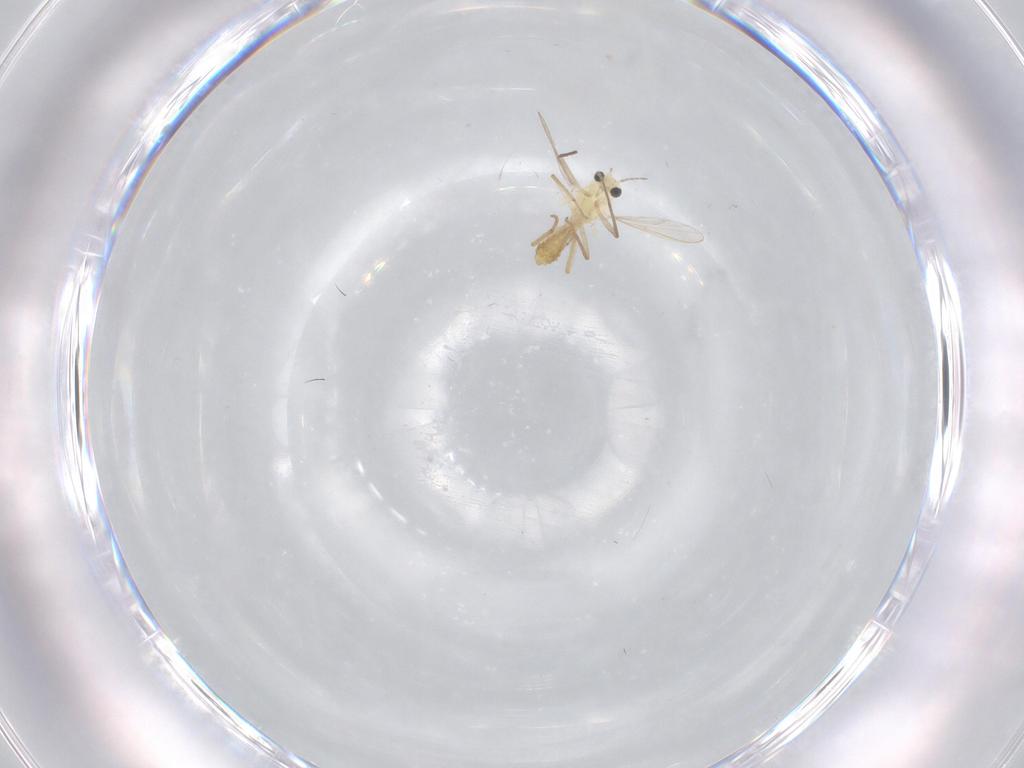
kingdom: Animalia
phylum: Arthropoda
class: Insecta
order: Diptera
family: Chironomidae
